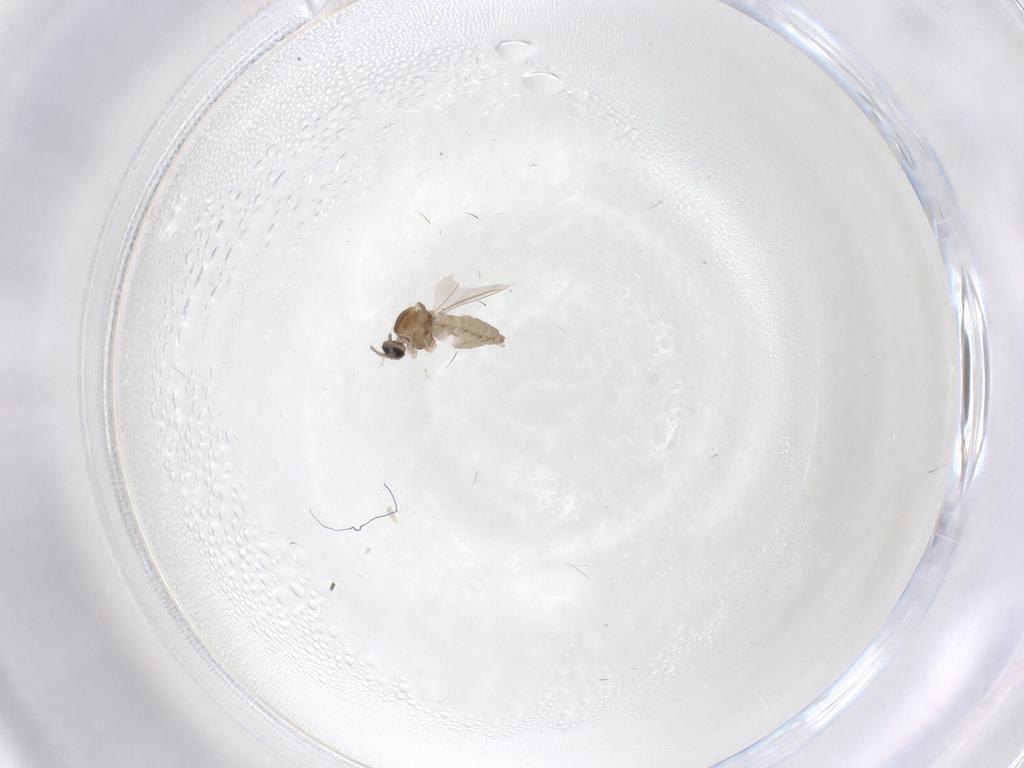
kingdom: Animalia
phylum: Arthropoda
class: Insecta
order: Diptera
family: Cecidomyiidae
